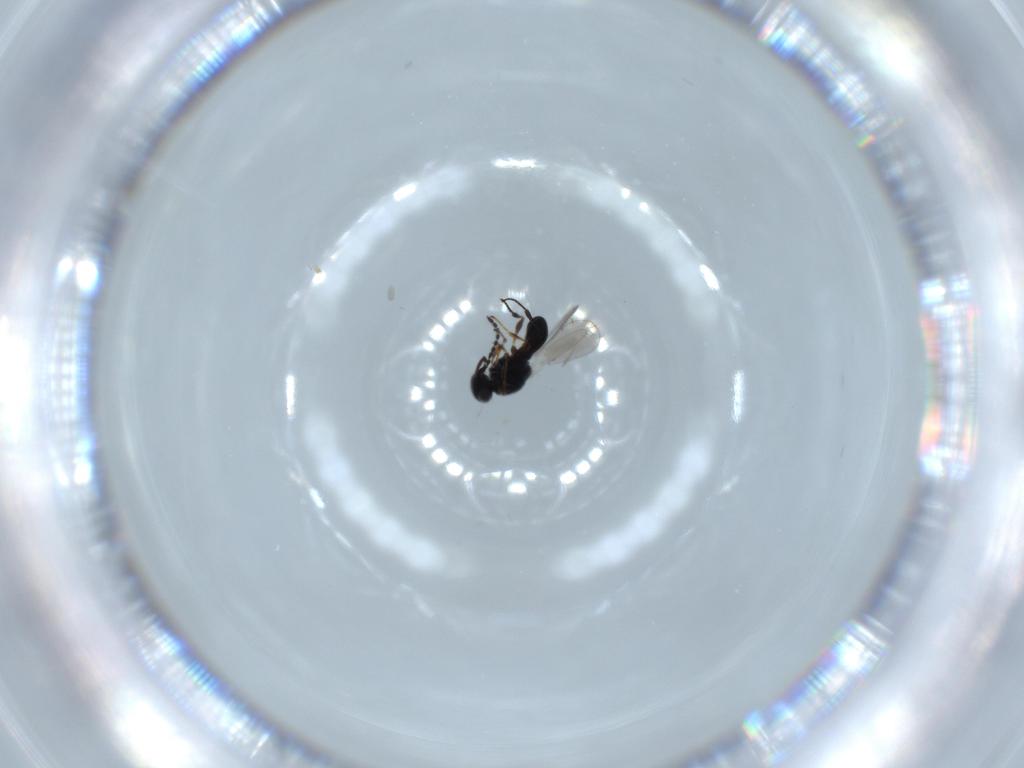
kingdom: Animalia
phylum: Arthropoda
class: Insecta
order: Hymenoptera
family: Platygastridae
